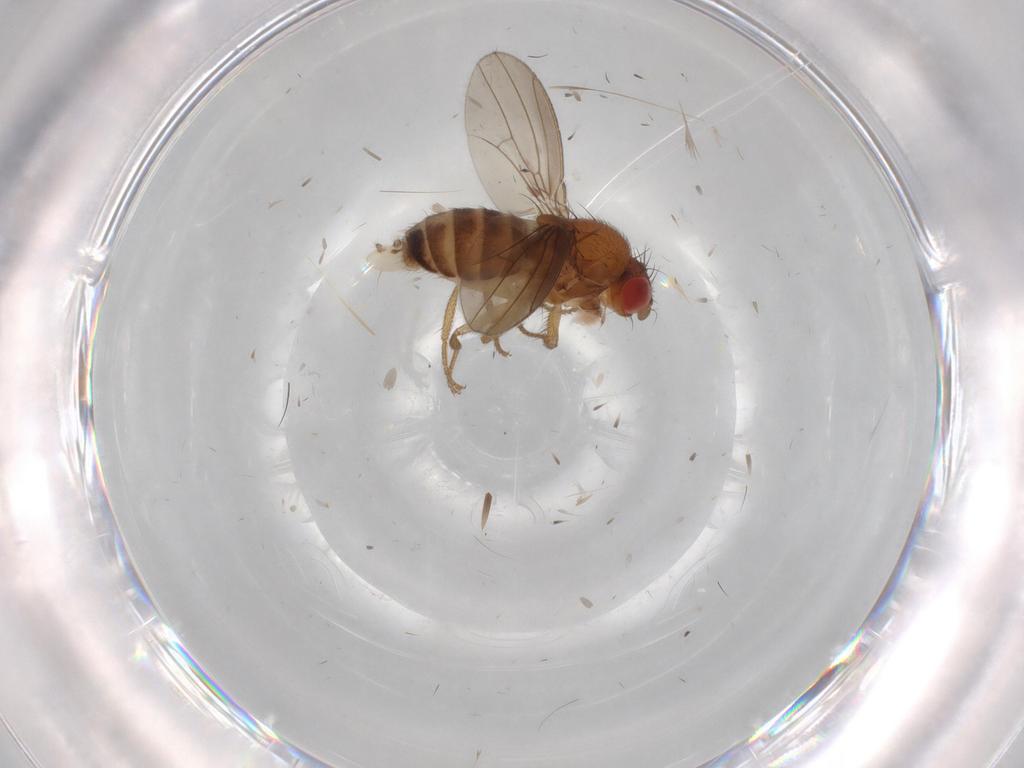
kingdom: Animalia
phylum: Arthropoda
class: Insecta
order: Diptera
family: Drosophilidae
